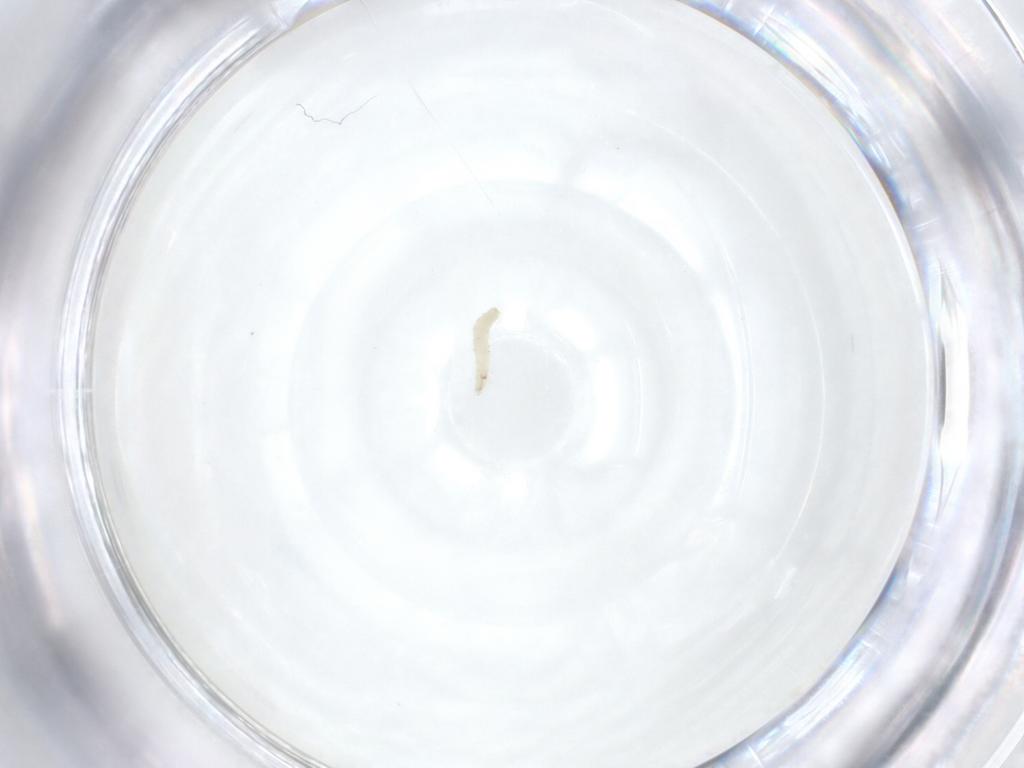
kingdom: Animalia
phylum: Arthropoda
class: Insecta
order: Diptera
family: Sarcophagidae
